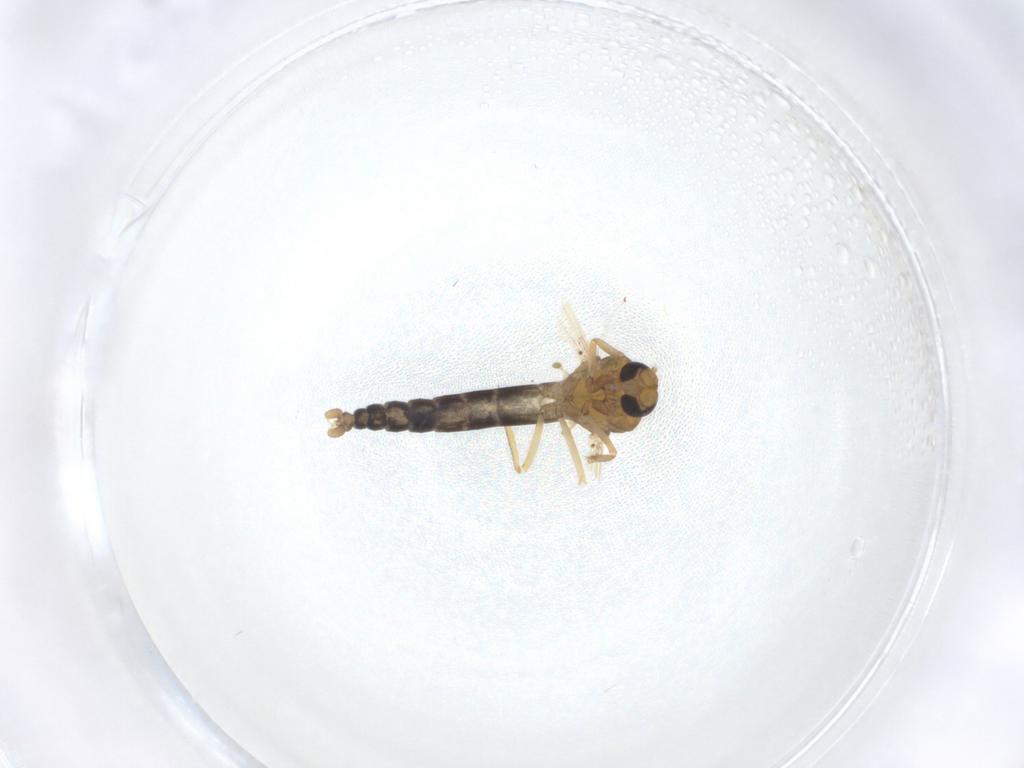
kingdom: Animalia
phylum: Arthropoda
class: Insecta
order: Diptera
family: Ceratopogonidae
